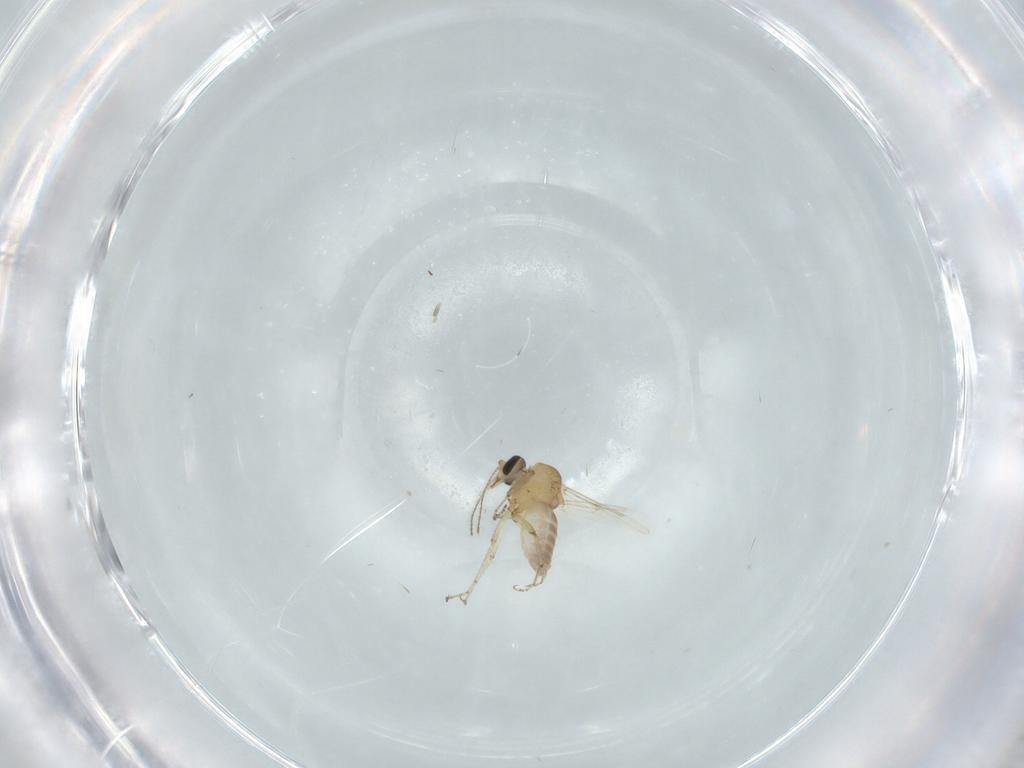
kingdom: Animalia
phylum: Arthropoda
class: Insecta
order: Diptera
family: Ceratopogonidae
